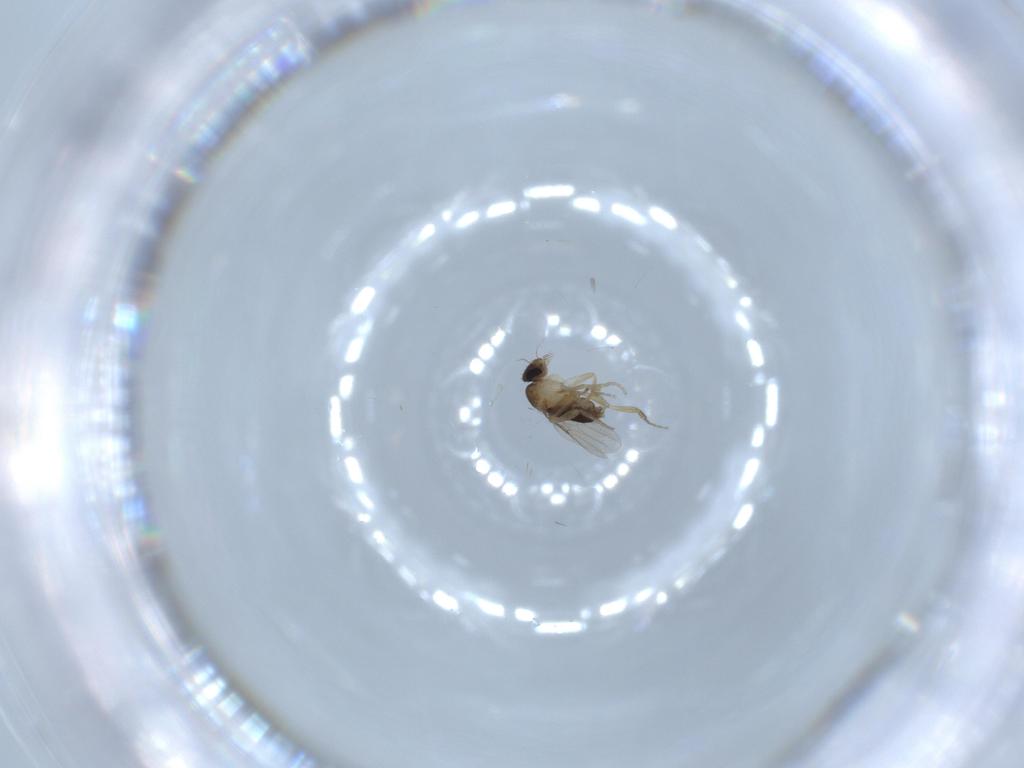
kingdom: Animalia
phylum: Arthropoda
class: Insecta
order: Diptera
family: Phoridae
